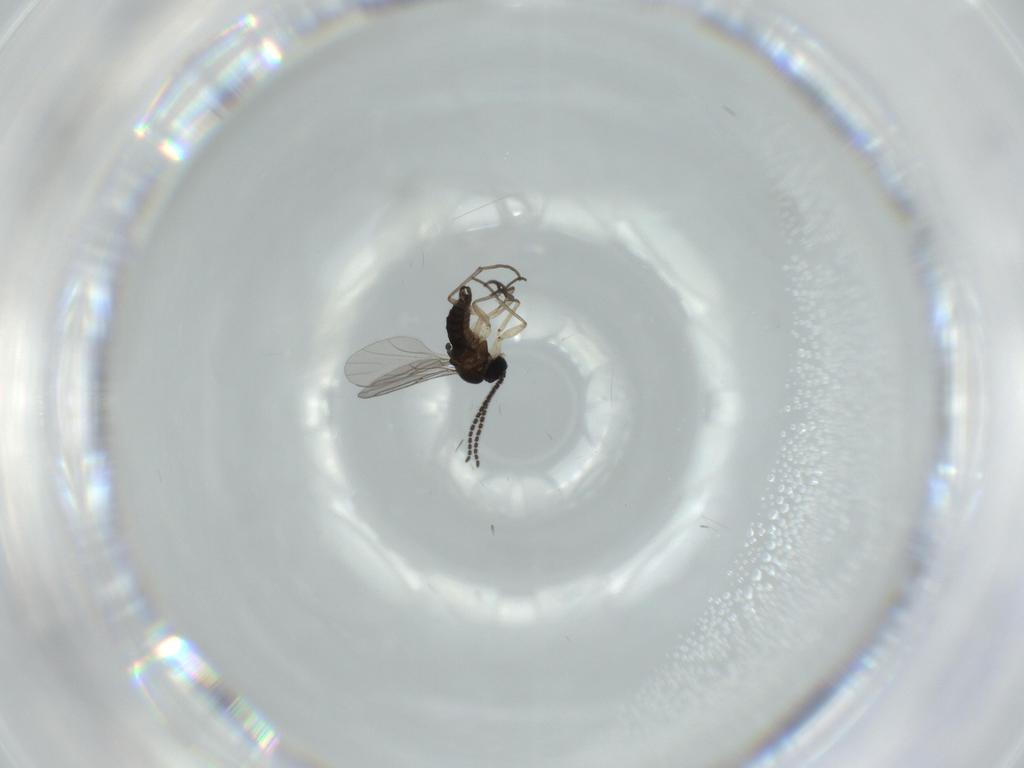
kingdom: Animalia
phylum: Arthropoda
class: Insecta
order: Diptera
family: Sciaridae
